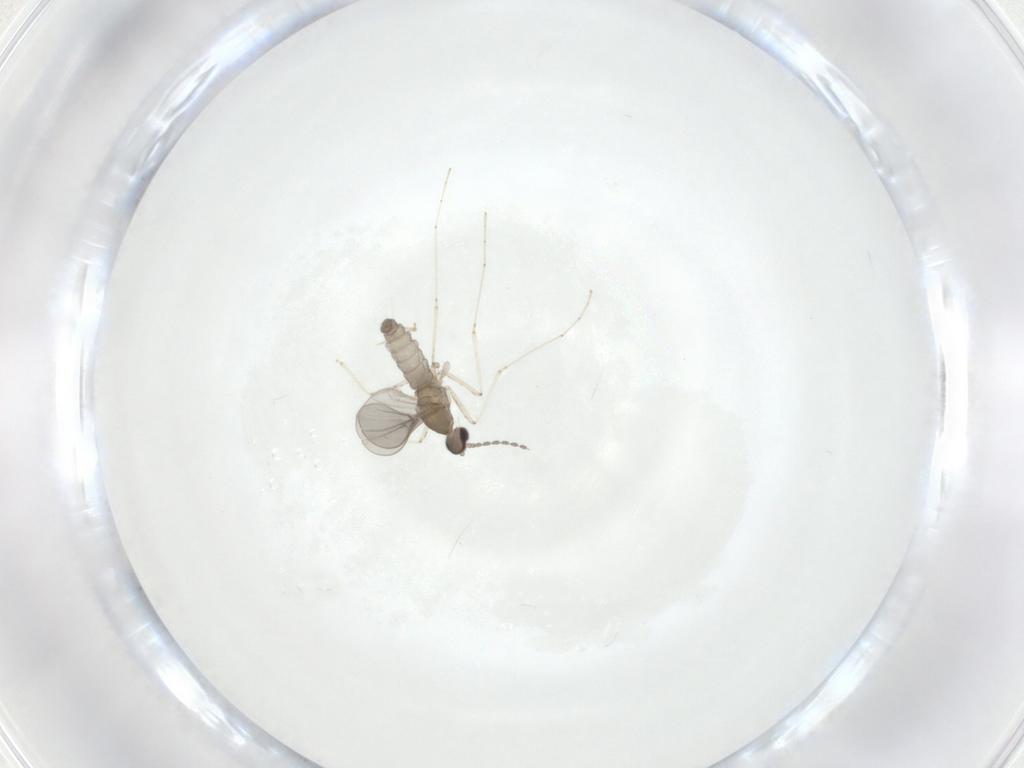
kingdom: Animalia
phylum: Arthropoda
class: Insecta
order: Diptera
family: Cecidomyiidae
